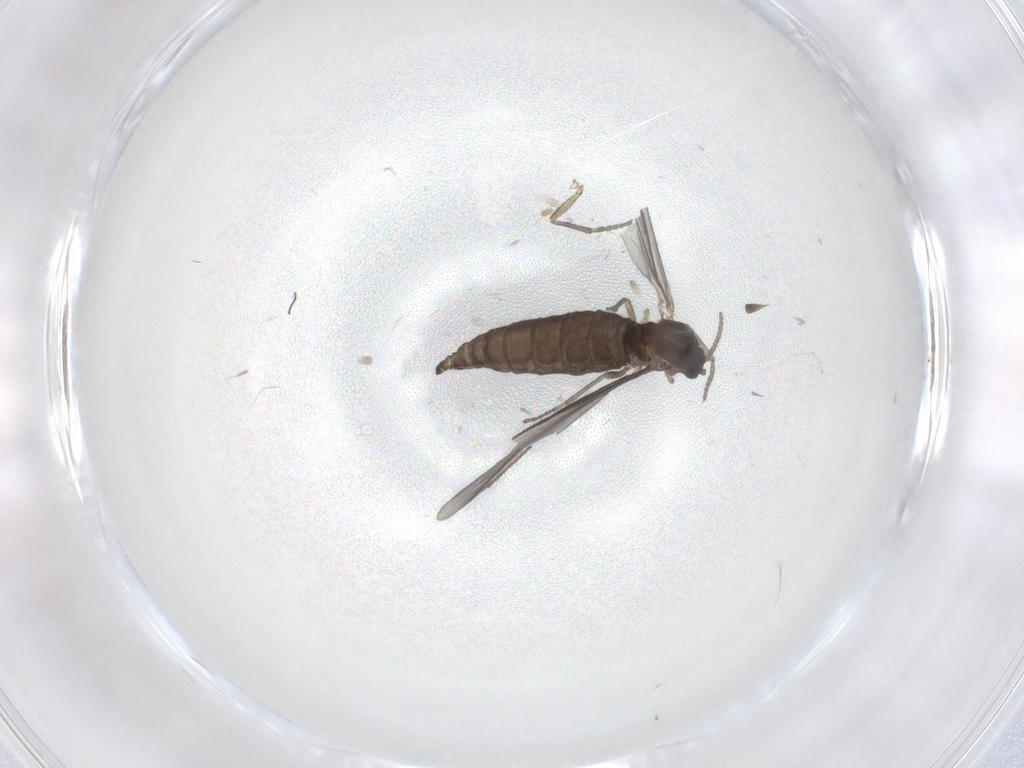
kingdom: Animalia
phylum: Arthropoda
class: Insecta
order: Diptera
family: Sciaridae
